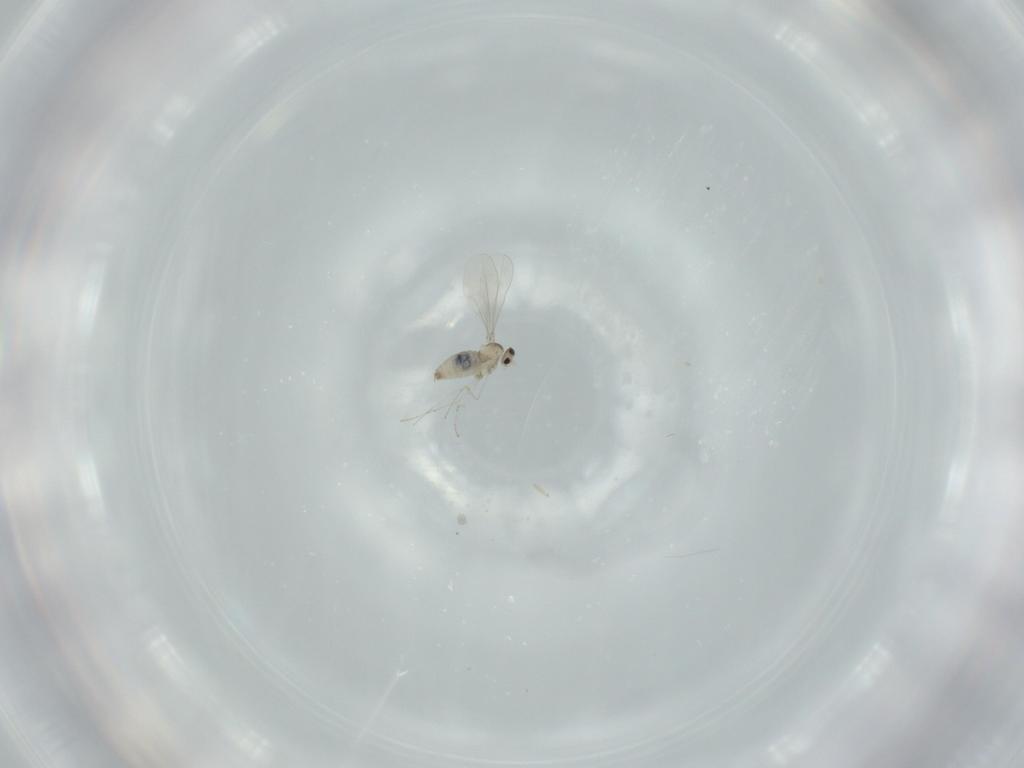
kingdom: Animalia
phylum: Arthropoda
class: Insecta
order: Diptera
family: Cecidomyiidae
